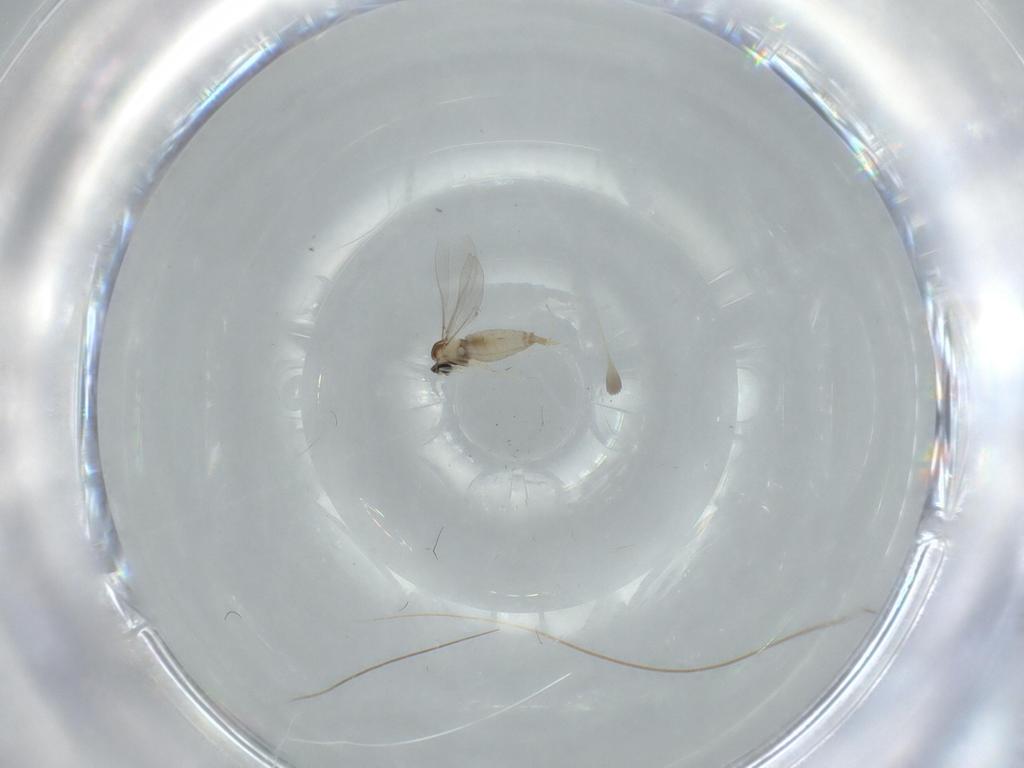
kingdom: Animalia
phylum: Arthropoda
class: Insecta
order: Diptera
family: Cecidomyiidae
